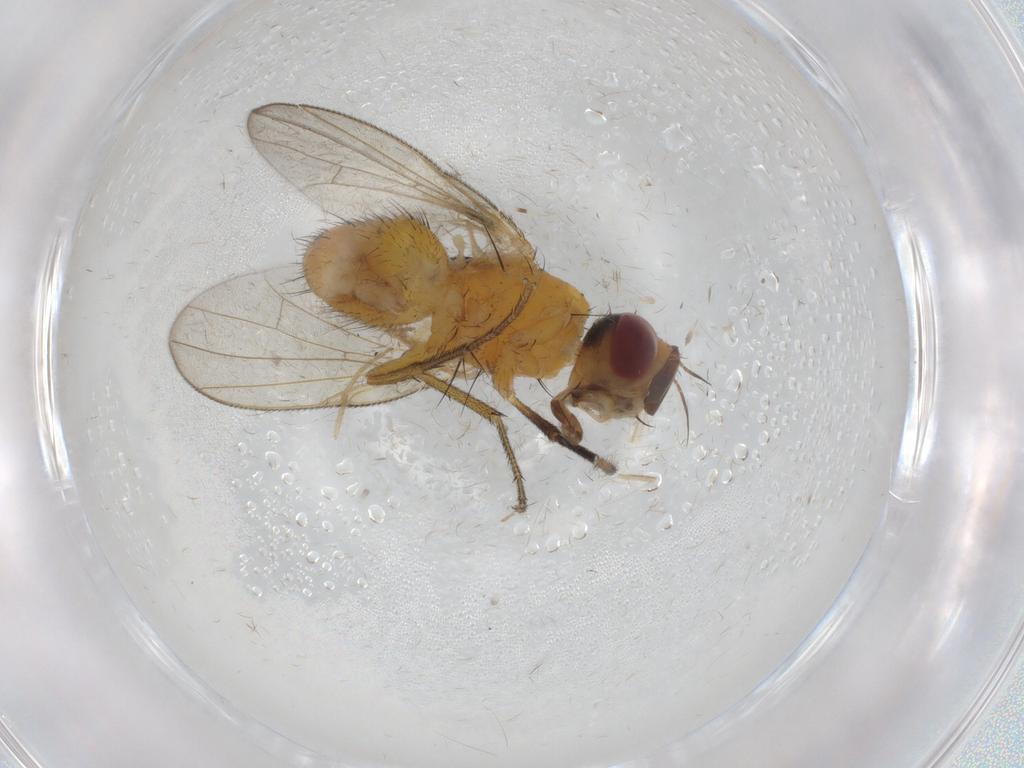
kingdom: Animalia
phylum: Arthropoda
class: Insecta
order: Diptera
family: Muscidae
